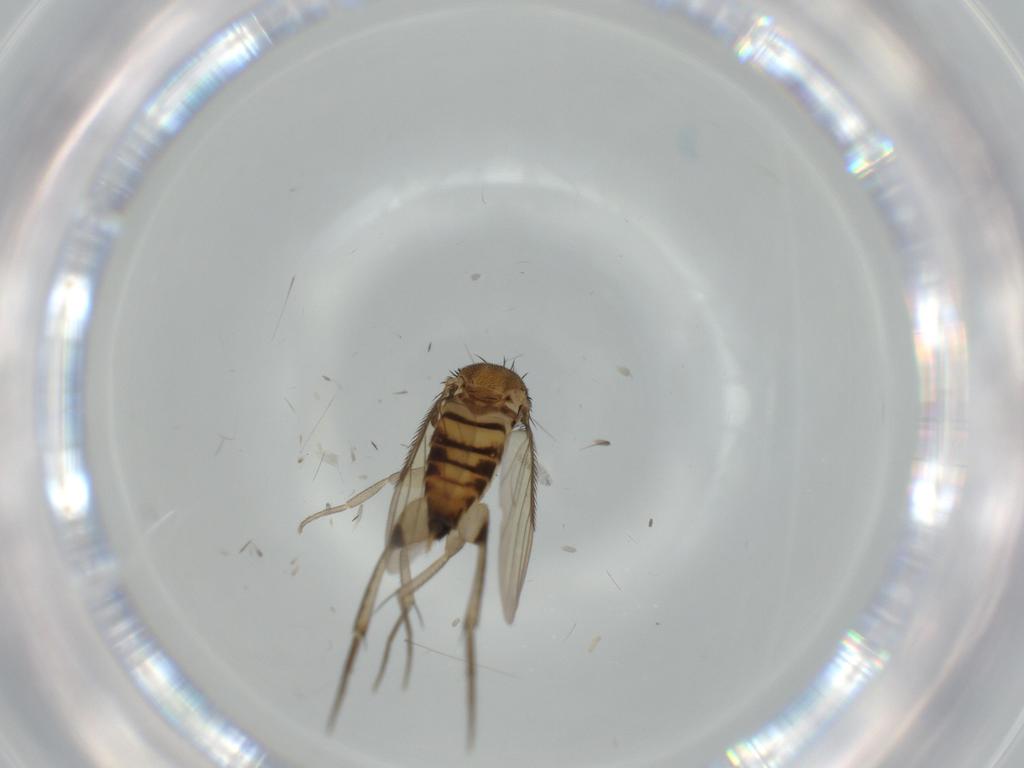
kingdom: Animalia
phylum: Arthropoda
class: Insecta
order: Diptera
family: Phoridae
